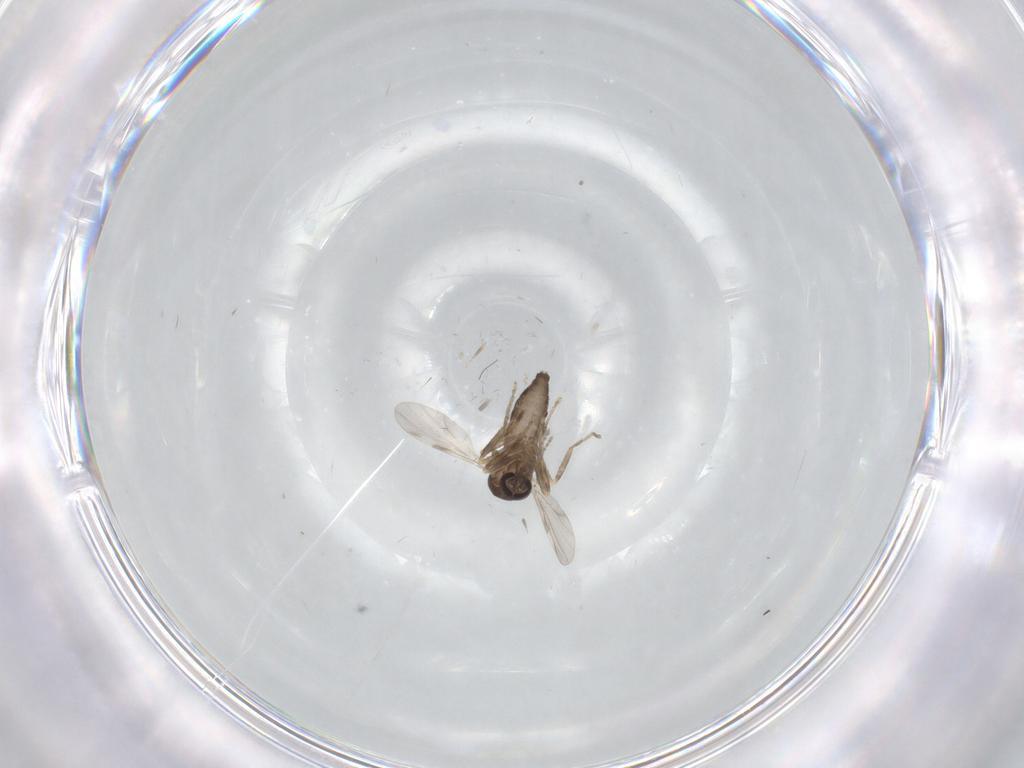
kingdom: Animalia
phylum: Arthropoda
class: Insecta
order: Diptera
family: Ceratopogonidae
